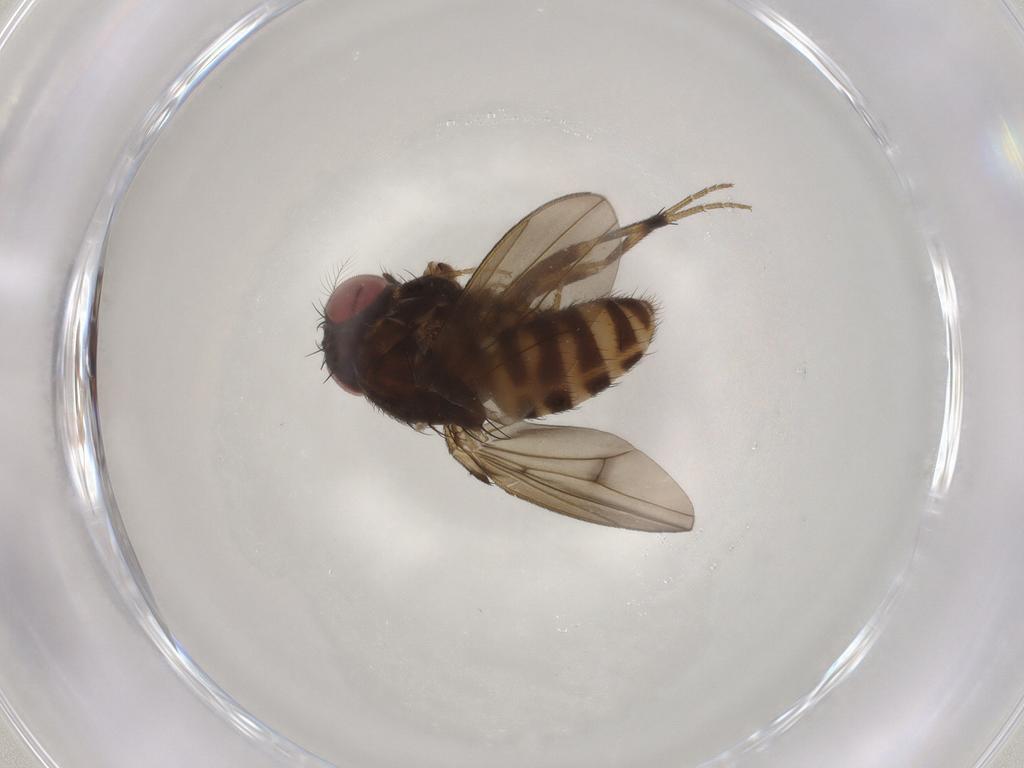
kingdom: Animalia
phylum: Arthropoda
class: Insecta
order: Diptera
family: Drosophilidae
